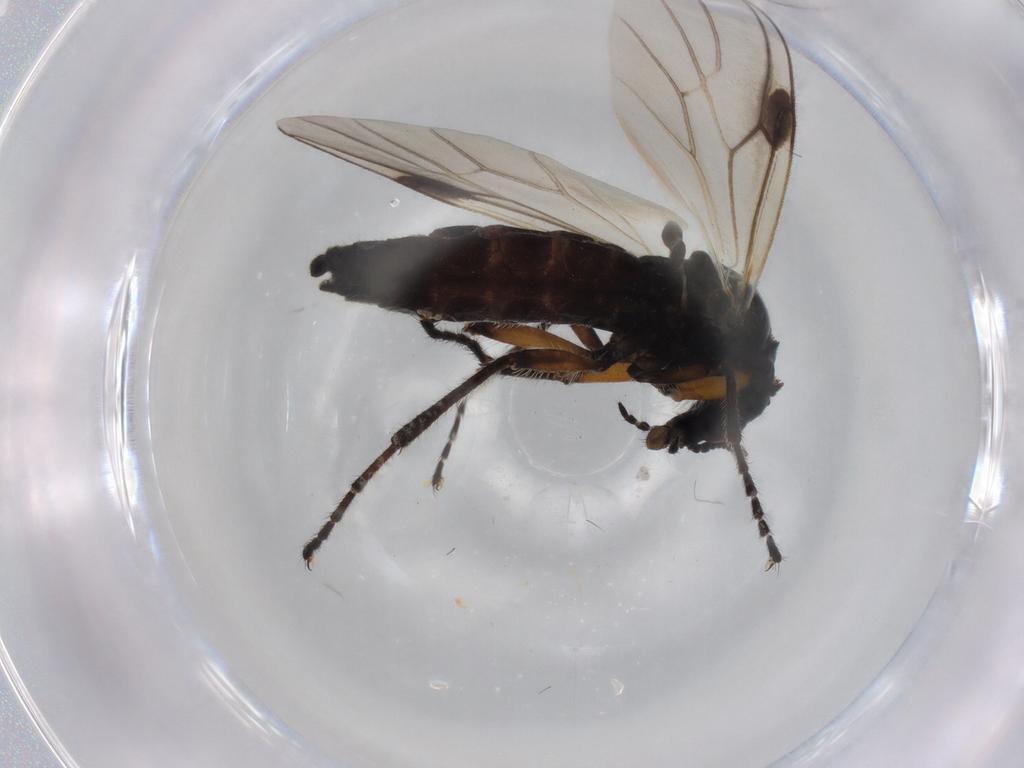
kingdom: Animalia
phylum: Arthropoda
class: Insecta
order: Diptera
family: Bibionidae
